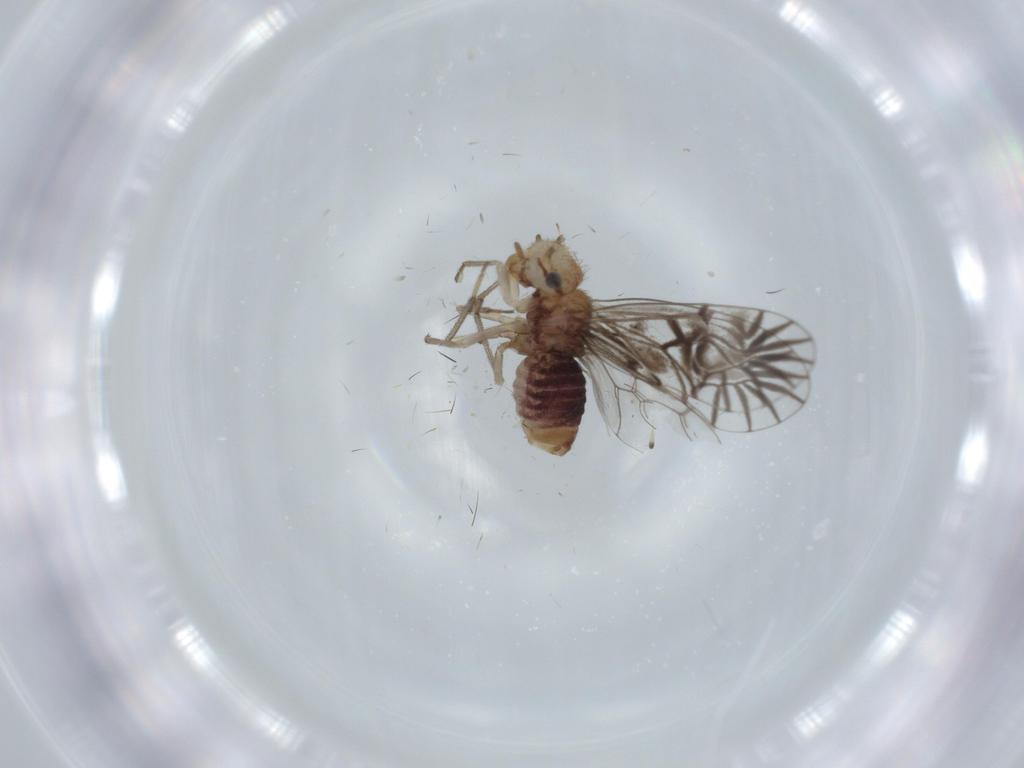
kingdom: Animalia
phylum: Arthropoda
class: Insecta
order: Psocodea
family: Amphipsocidae
